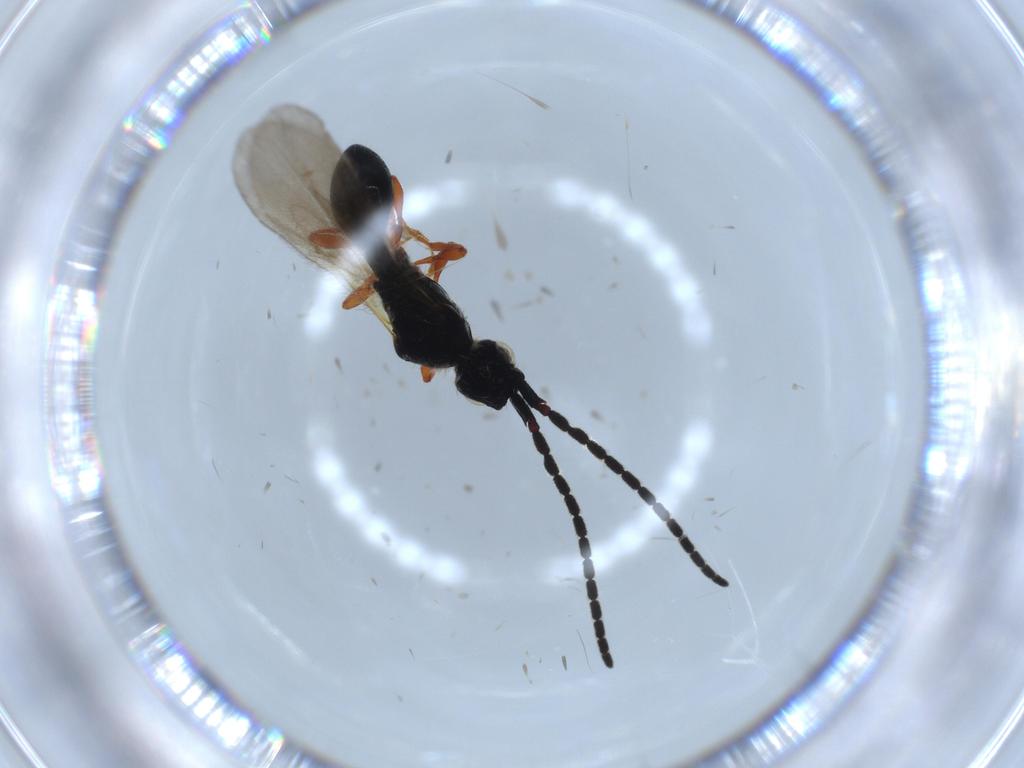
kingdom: Animalia
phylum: Arthropoda
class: Insecta
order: Hymenoptera
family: Diapriidae
